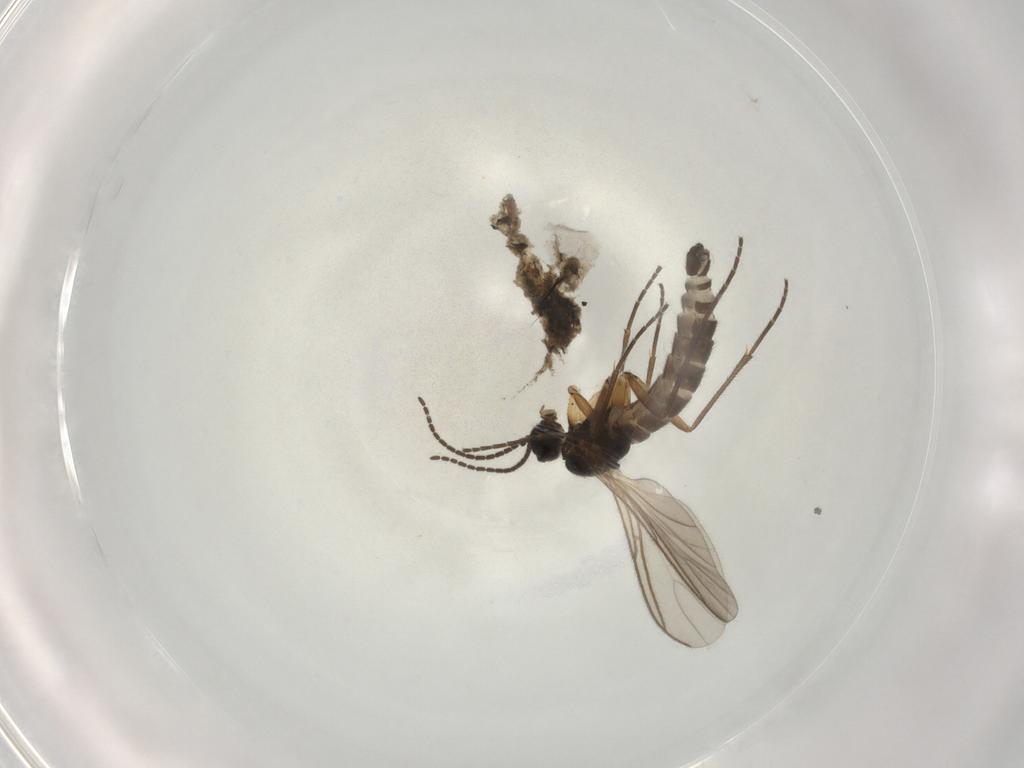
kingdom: Animalia
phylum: Arthropoda
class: Insecta
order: Diptera
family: Sciaridae
